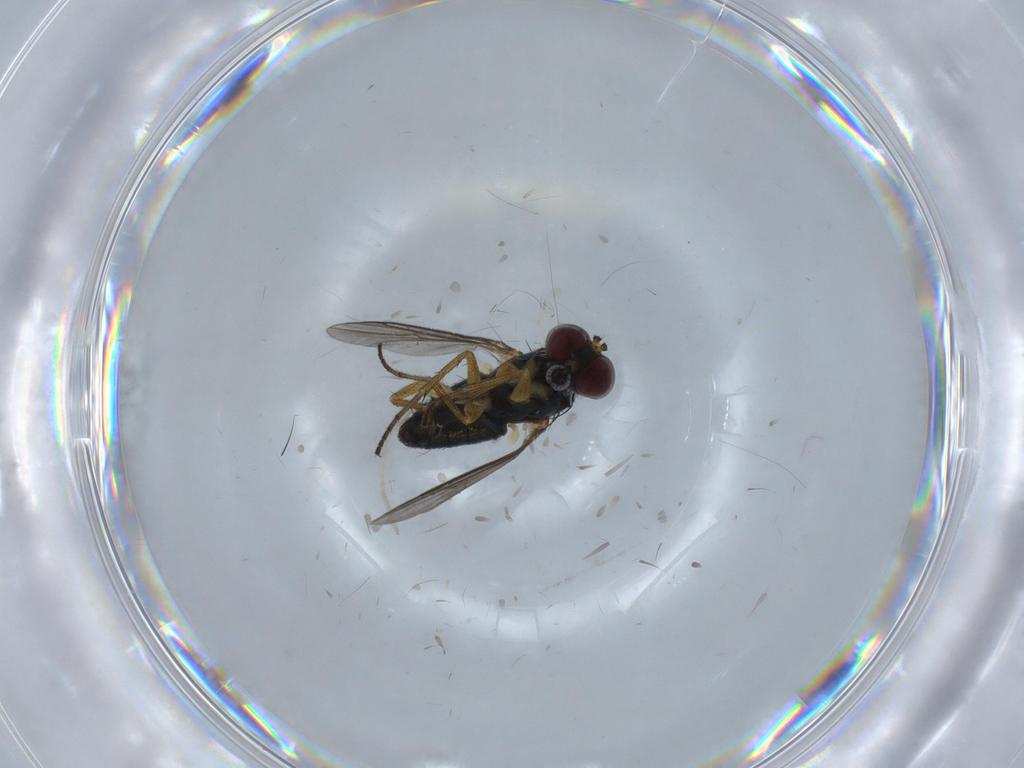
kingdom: Animalia
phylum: Arthropoda
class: Insecta
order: Diptera
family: Chironomidae
